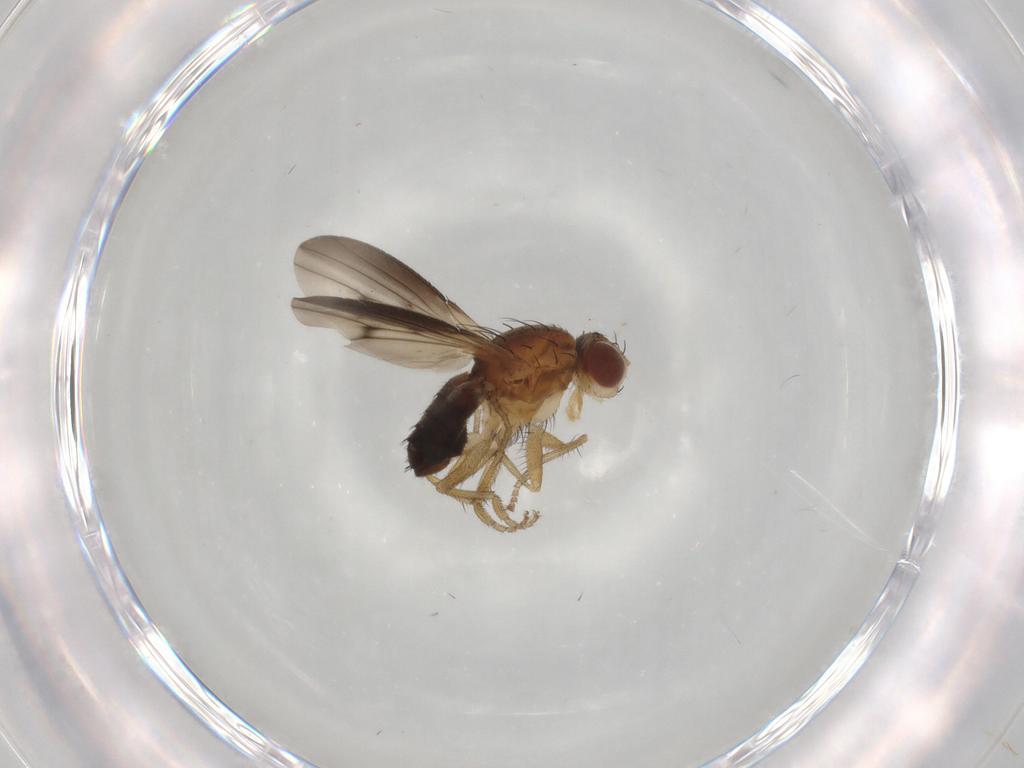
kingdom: Animalia
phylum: Arthropoda
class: Insecta
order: Diptera
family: Heleomyzidae
